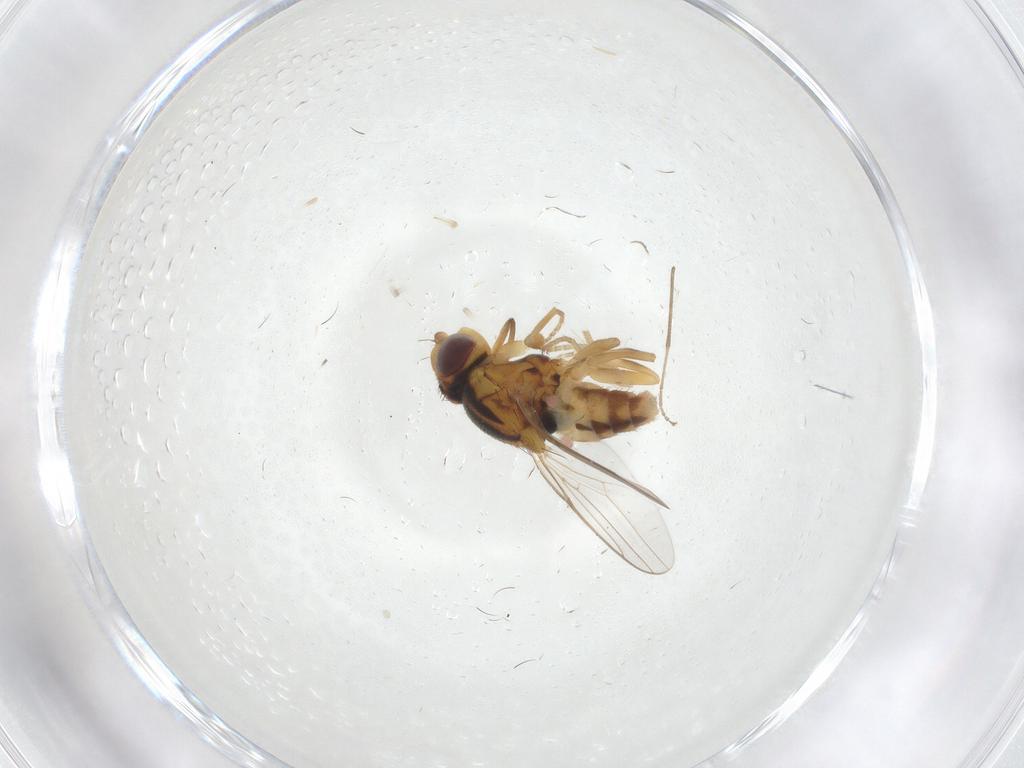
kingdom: Animalia
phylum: Arthropoda
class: Insecta
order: Diptera
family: Chloropidae
